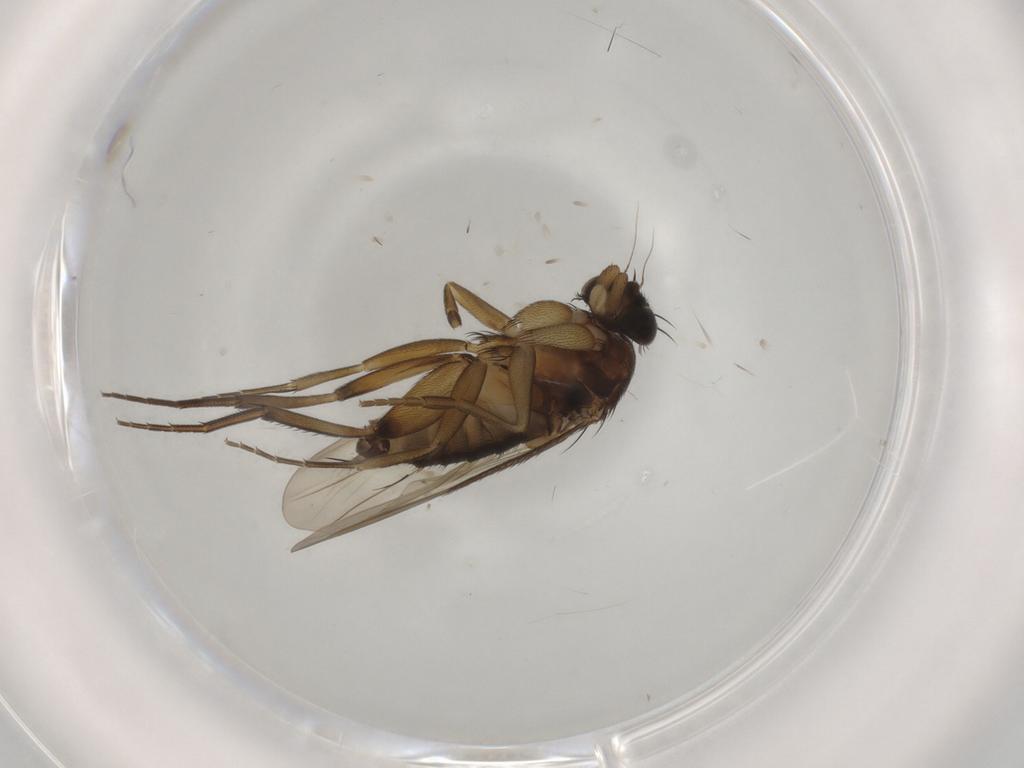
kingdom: Animalia
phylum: Arthropoda
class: Insecta
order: Diptera
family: Phoridae
